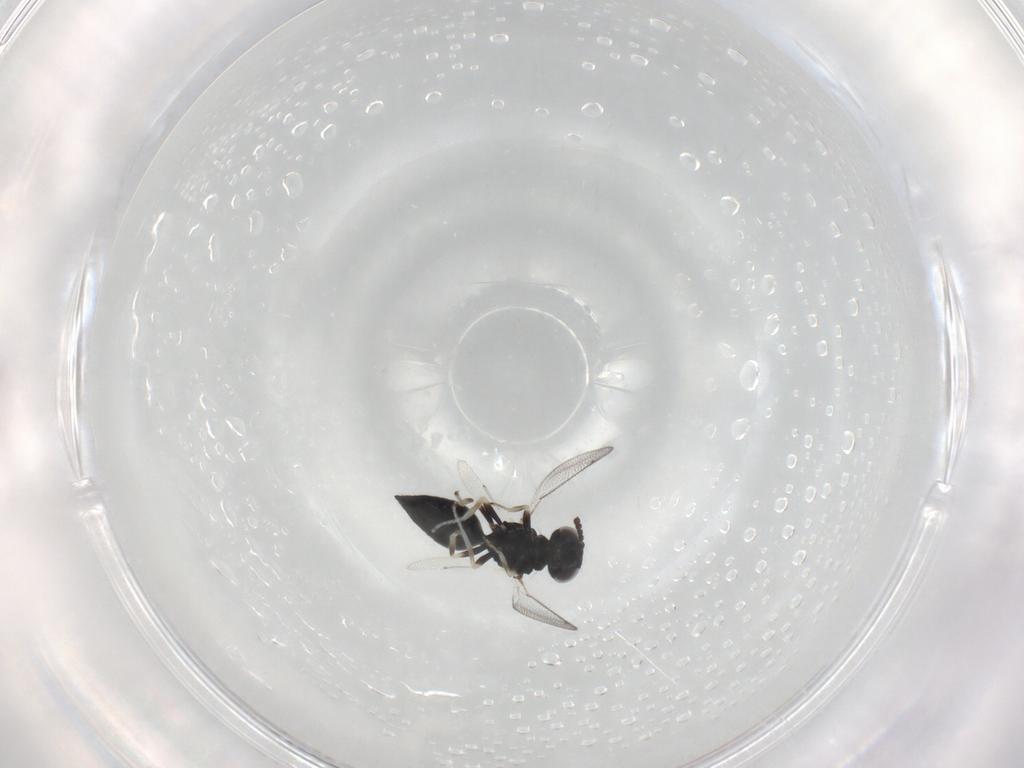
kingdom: Animalia
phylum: Arthropoda
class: Insecta
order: Hymenoptera
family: Eulophidae
